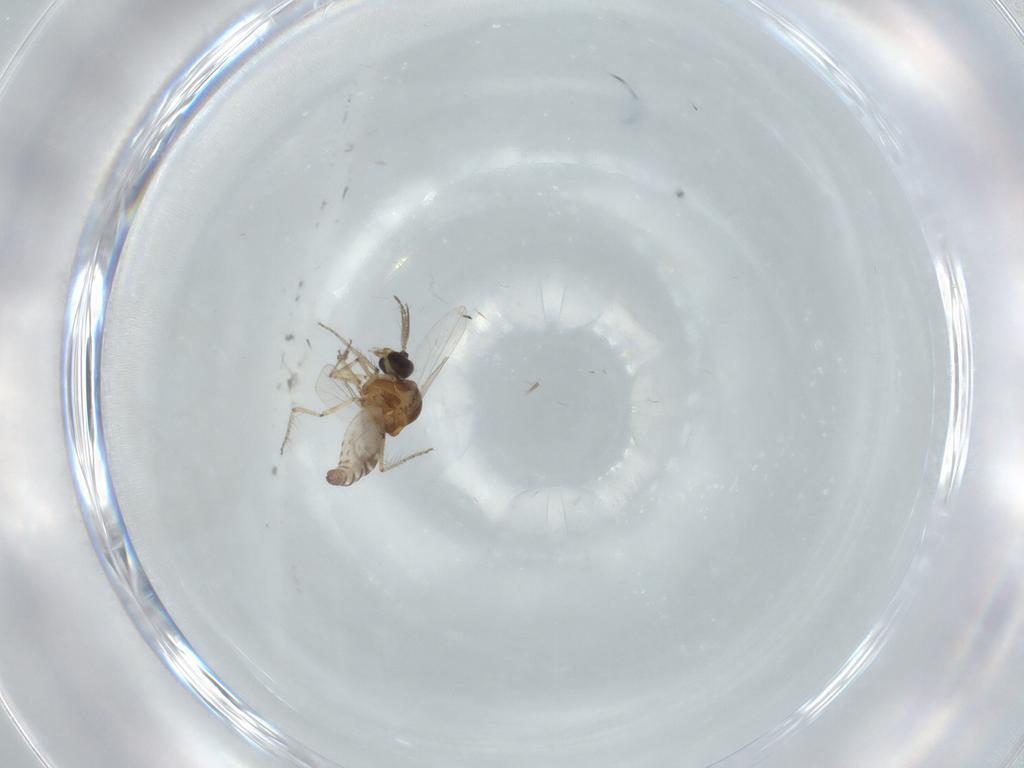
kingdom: Animalia
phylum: Arthropoda
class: Insecta
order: Diptera
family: Ceratopogonidae
